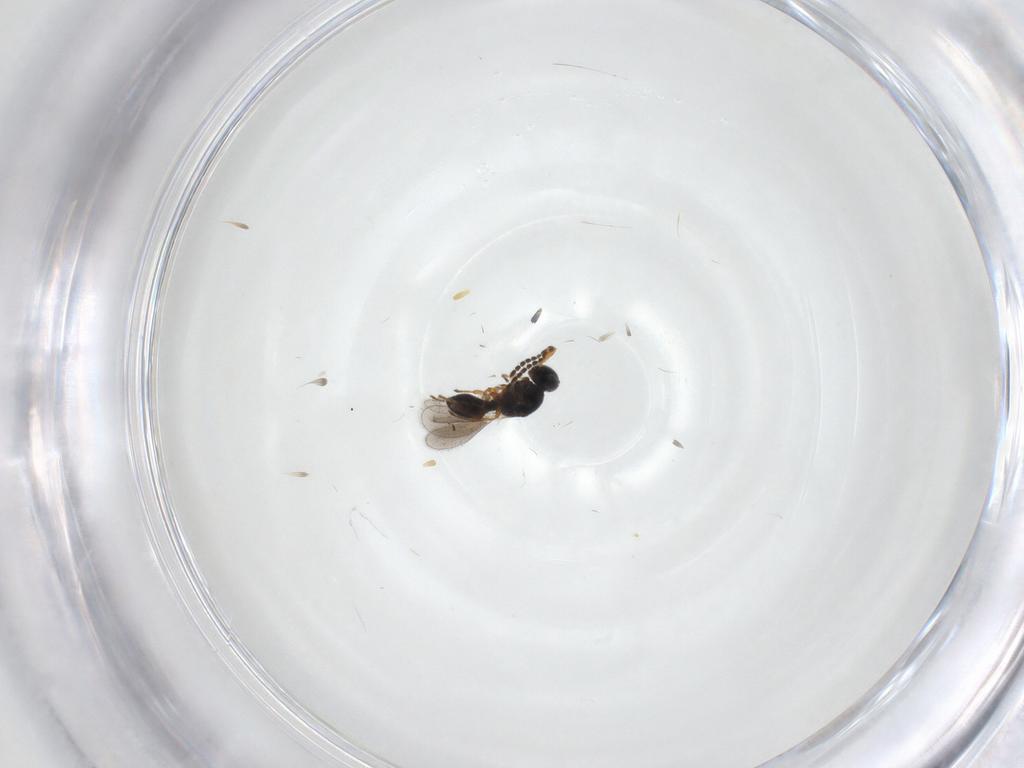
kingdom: Animalia
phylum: Arthropoda
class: Insecta
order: Hymenoptera
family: Platygastridae
